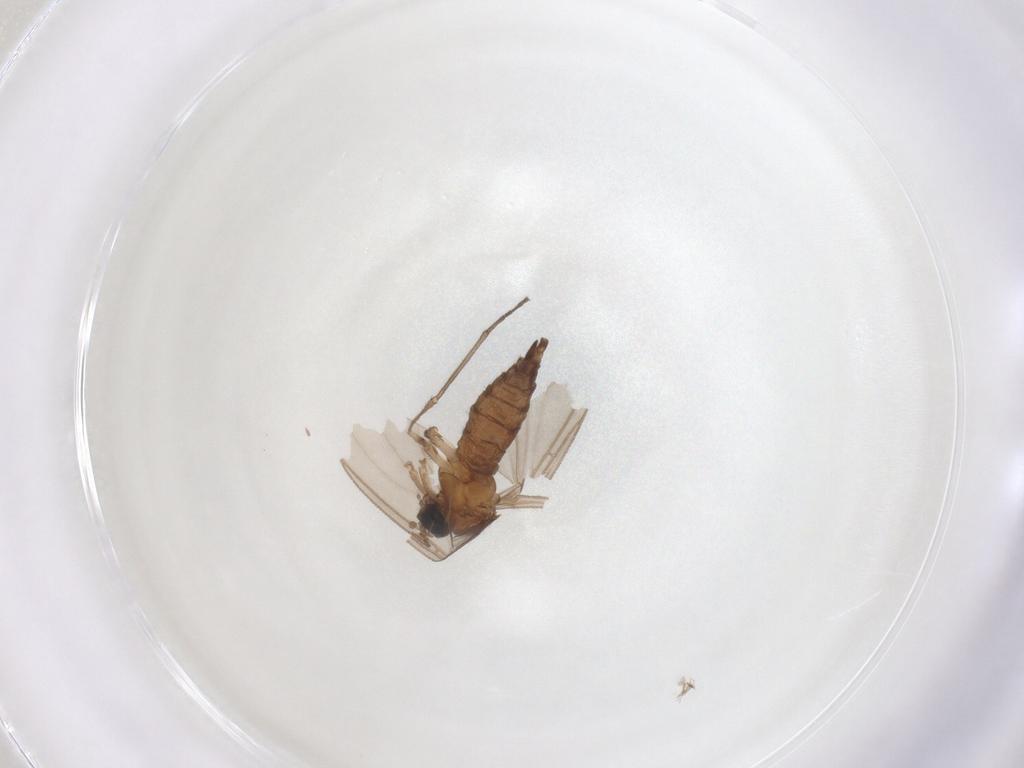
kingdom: Animalia
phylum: Arthropoda
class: Insecta
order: Diptera
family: Sciaridae
